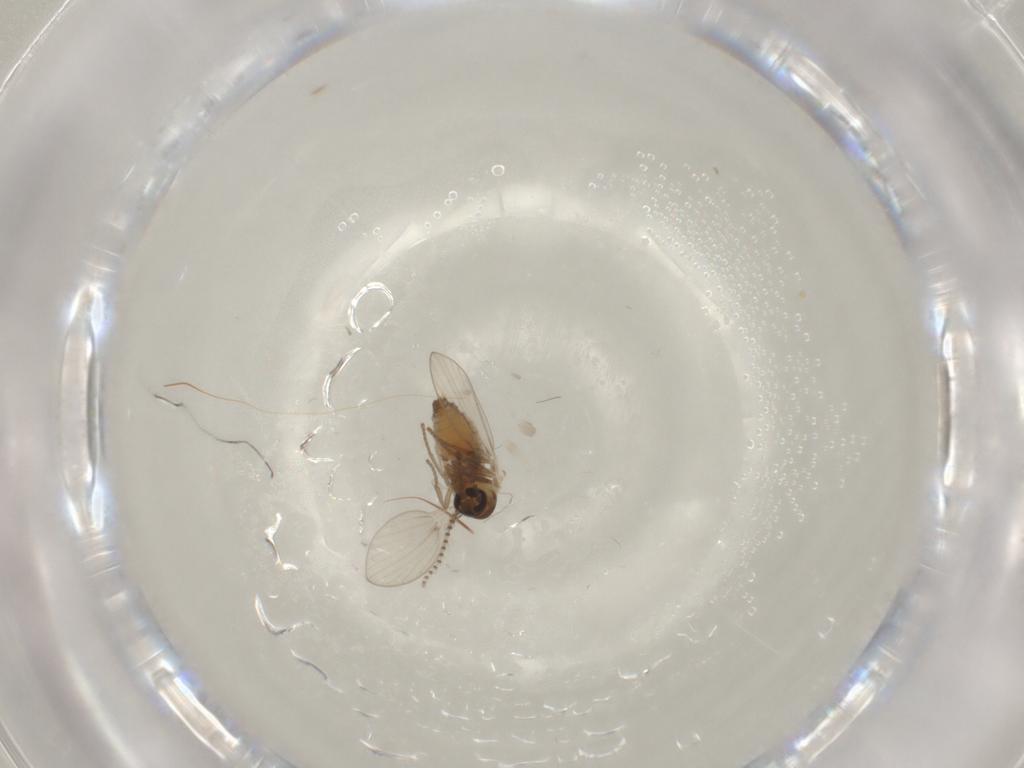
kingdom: Animalia
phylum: Arthropoda
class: Insecta
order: Diptera
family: Psychodidae
